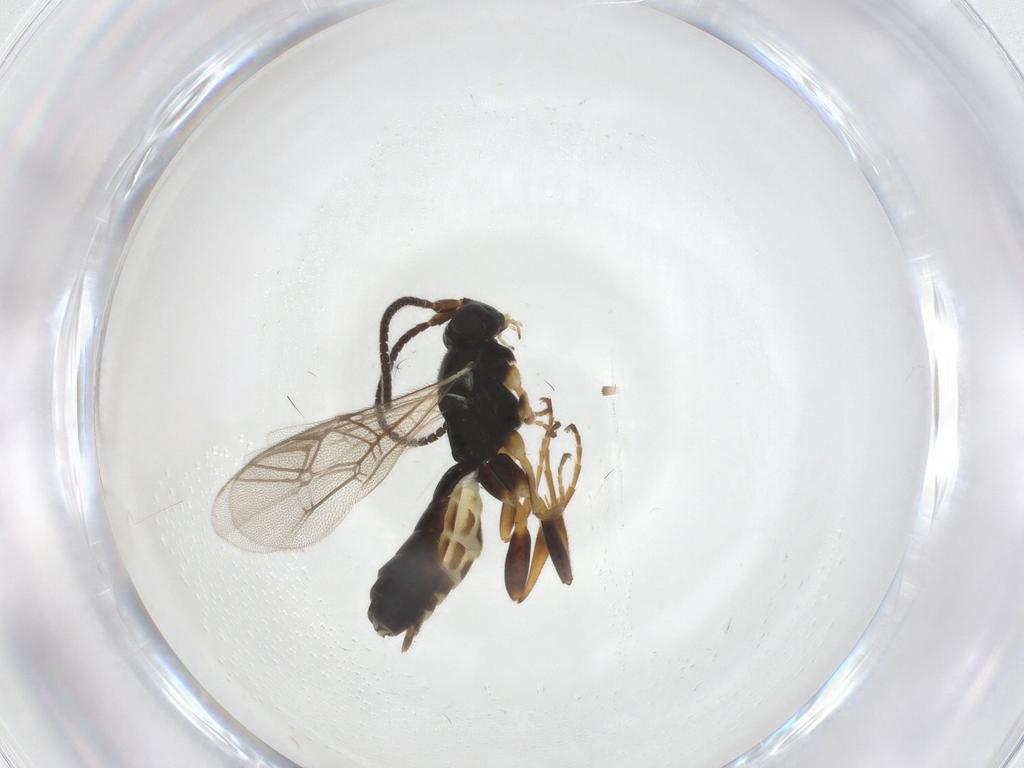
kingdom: Animalia
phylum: Arthropoda
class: Insecta
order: Hymenoptera
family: Ichneumonidae
